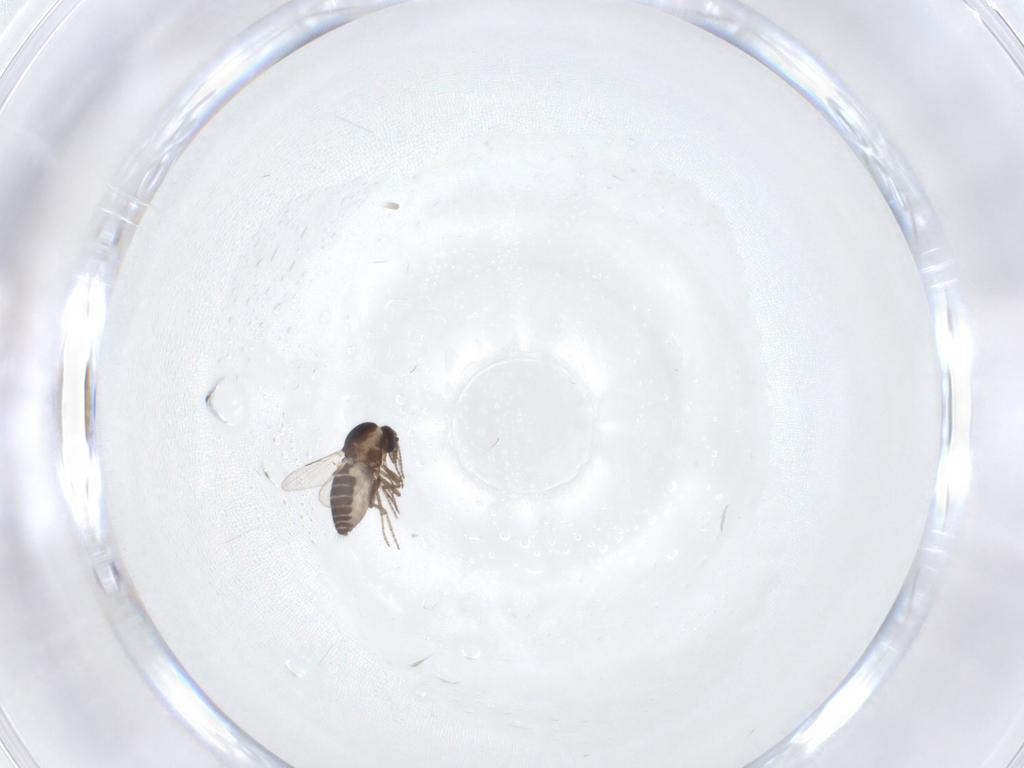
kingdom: Animalia
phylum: Arthropoda
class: Insecta
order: Diptera
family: Ceratopogonidae
